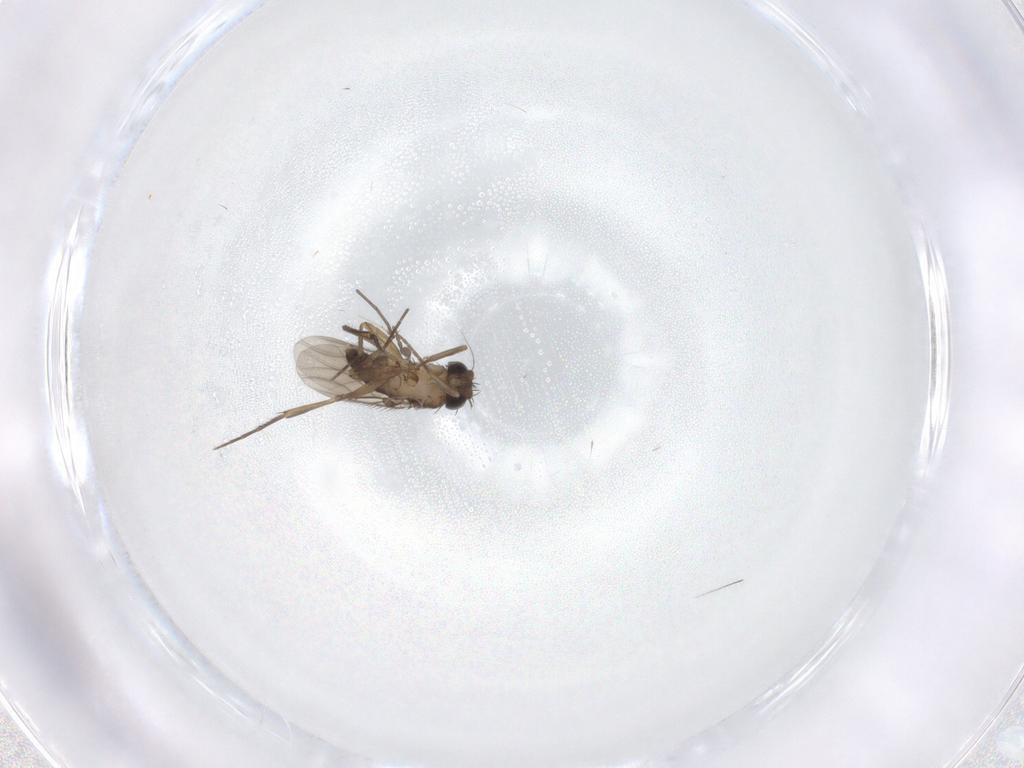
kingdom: Animalia
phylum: Arthropoda
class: Insecta
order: Diptera
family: Phoridae
